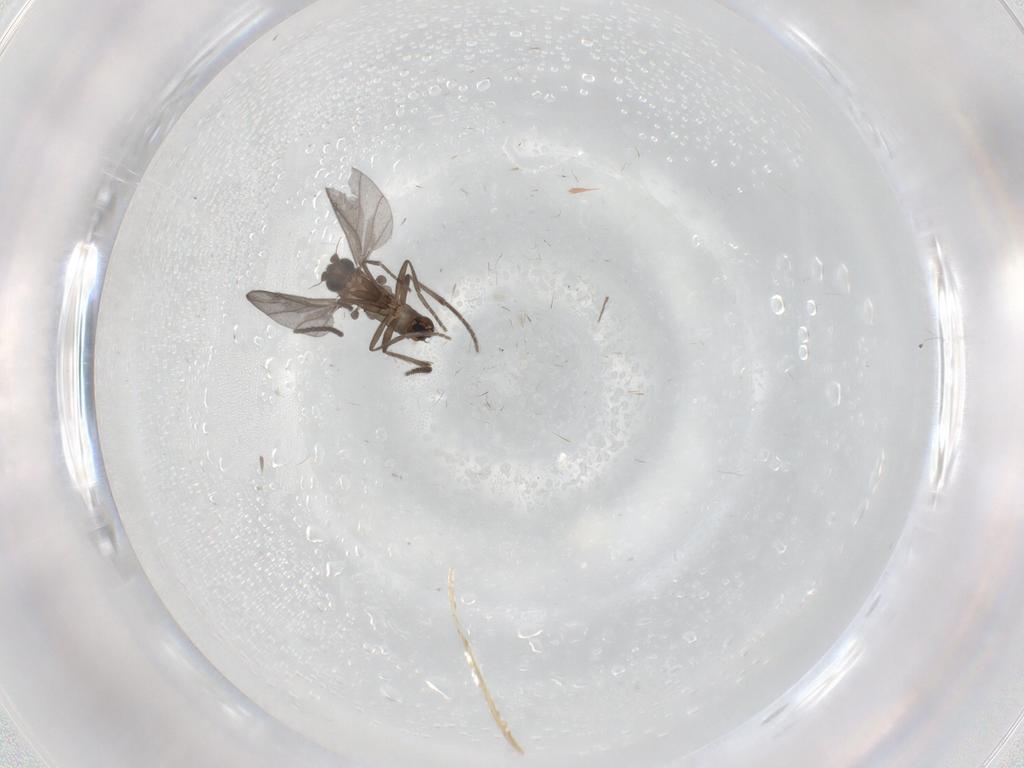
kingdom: Animalia
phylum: Arthropoda
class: Insecta
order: Diptera
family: Phoridae
